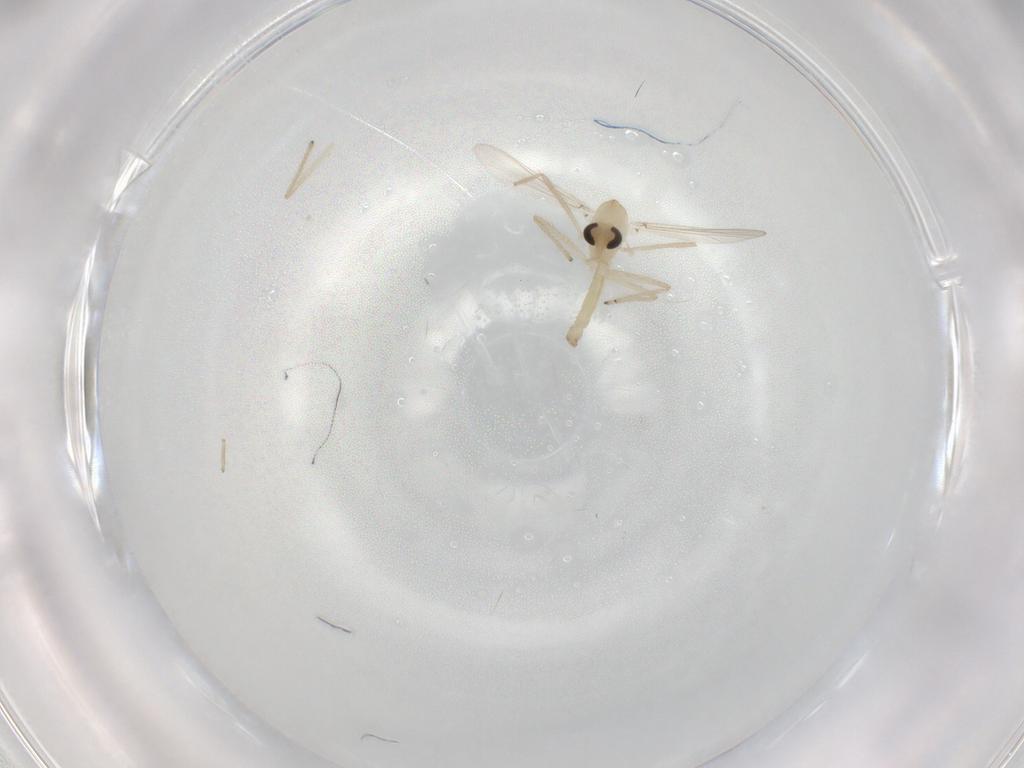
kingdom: Animalia
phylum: Arthropoda
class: Insecta
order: Diptera
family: Chironomidae
